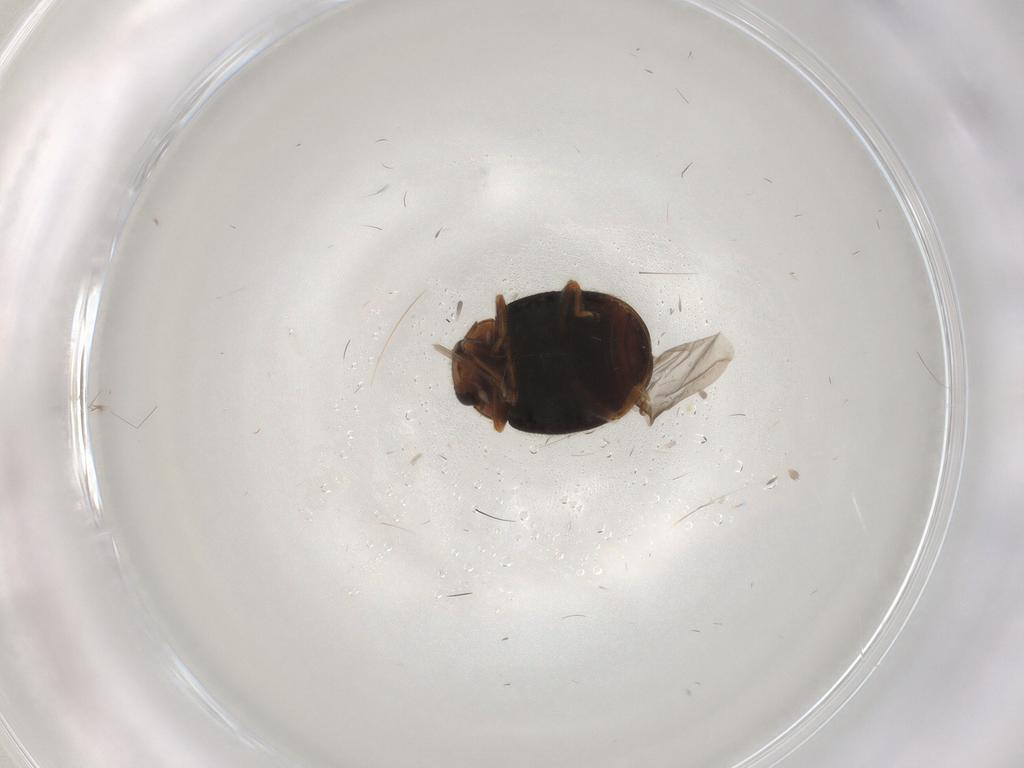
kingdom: Animalia
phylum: Arthropoda
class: Insecta
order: Coleoptera
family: Coccinellidae
